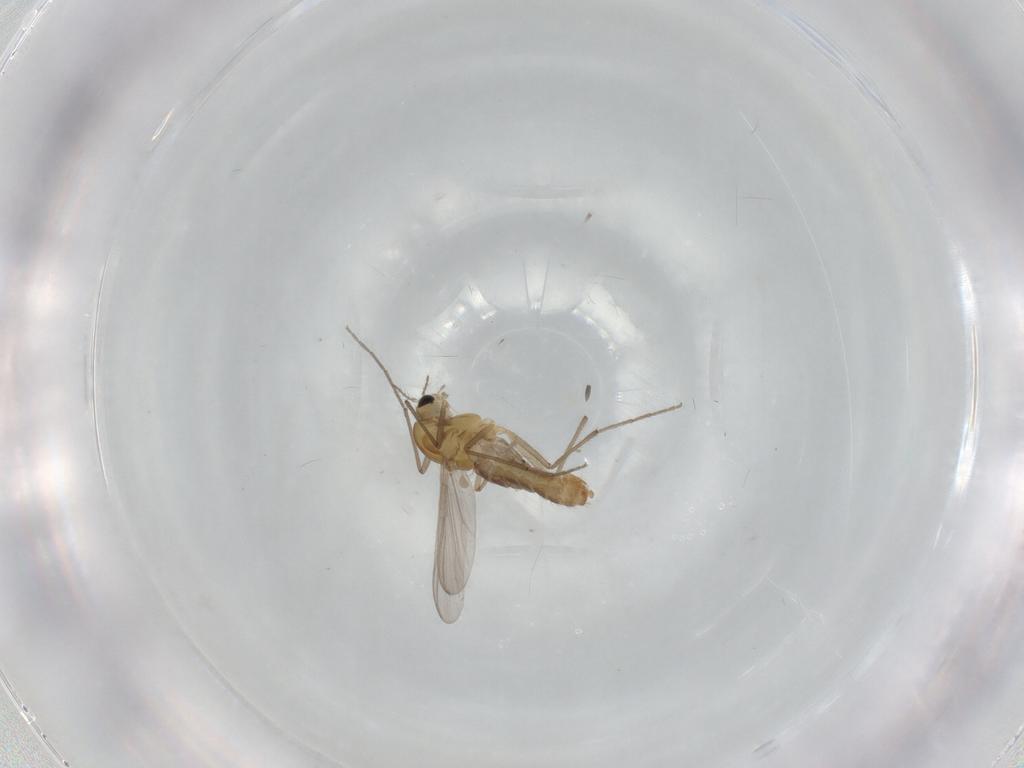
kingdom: Animalia
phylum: Arthropoda
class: Insecta
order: Diptera
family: Chironomidae
